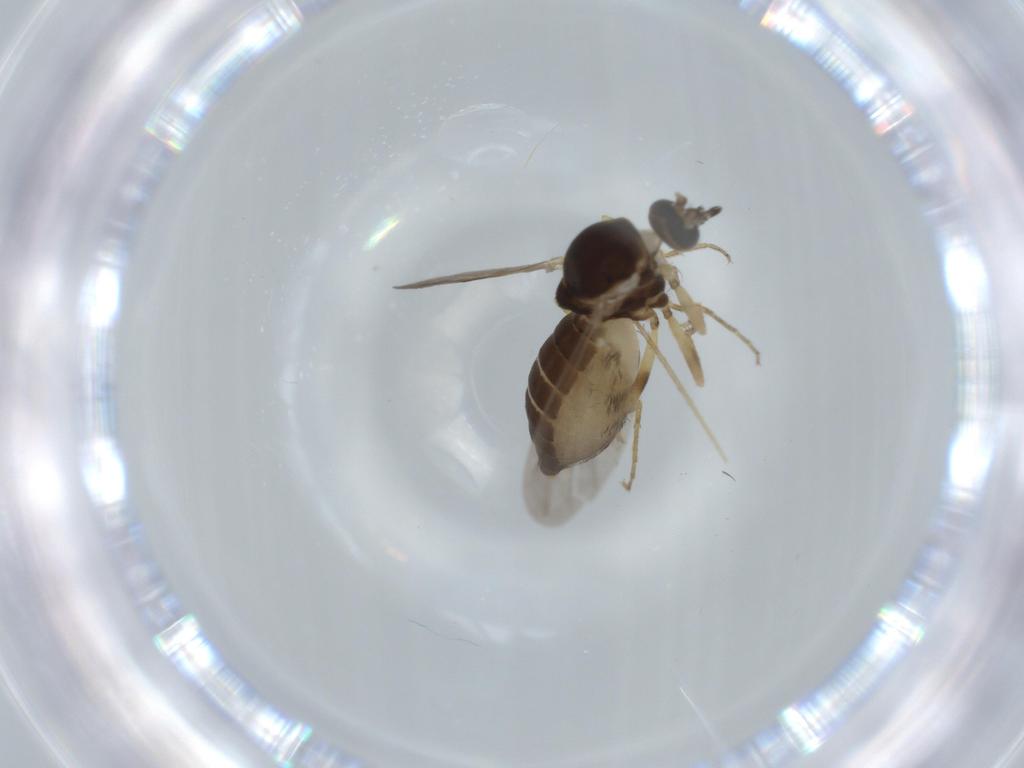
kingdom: Animalia
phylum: Arthropoda
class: Insecta
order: Diptera
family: Ceratopogonidae
